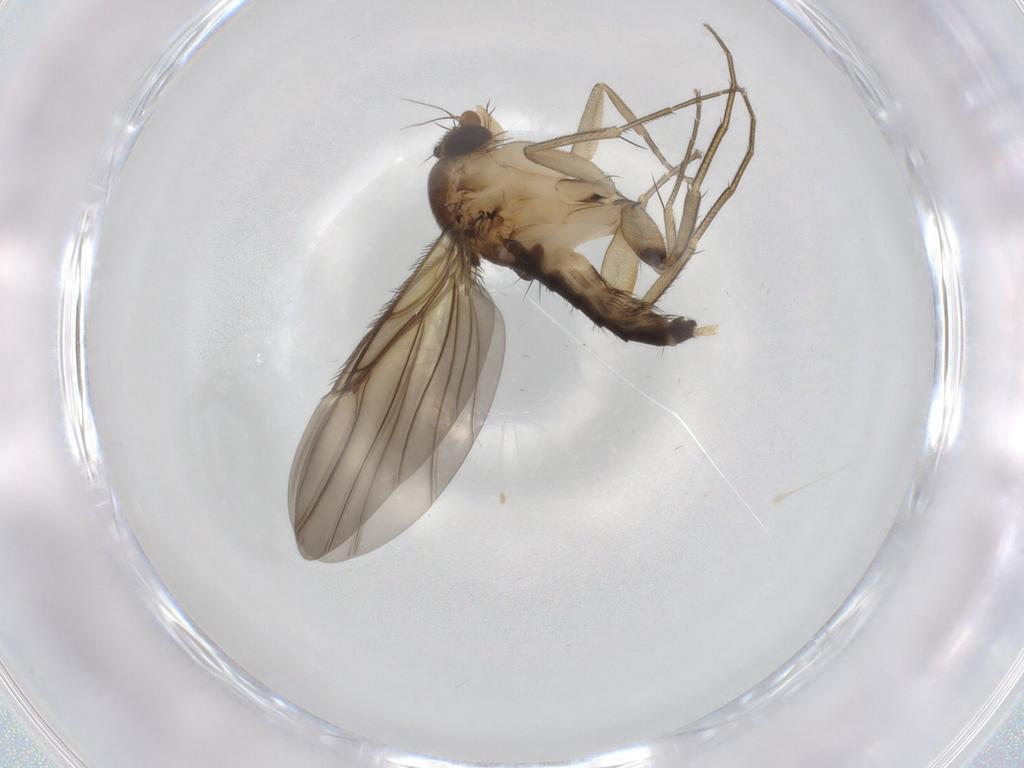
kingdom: Animalia
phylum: Arthropoda
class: Insecta
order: Diptera
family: Phoridae
